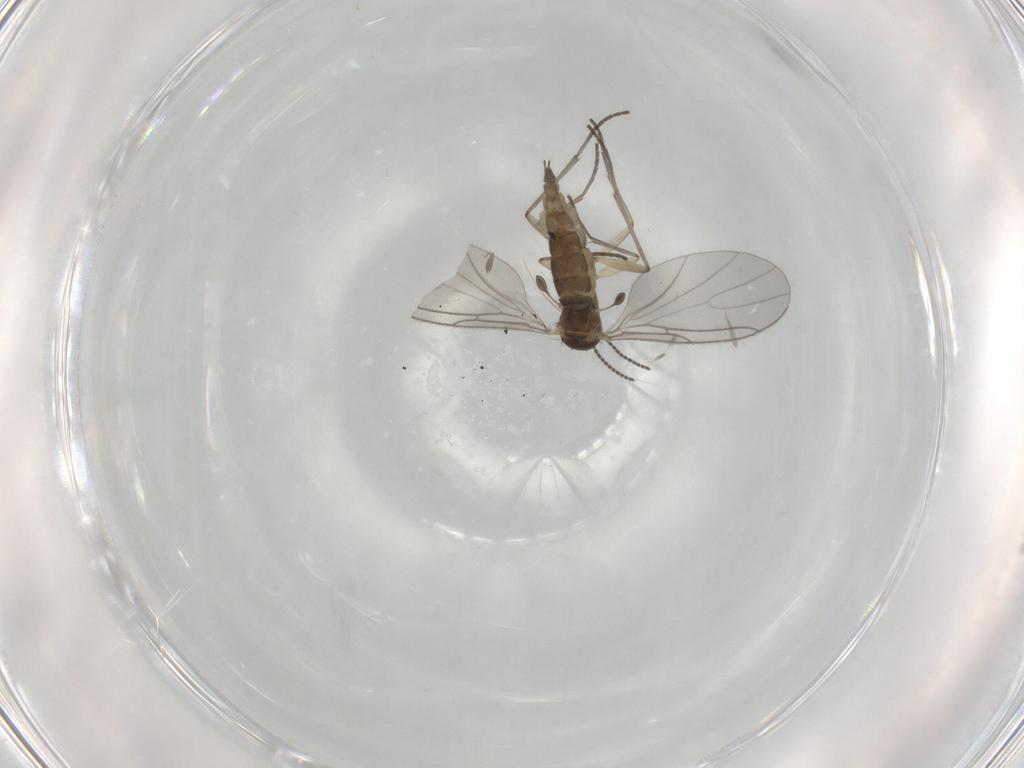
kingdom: Animalia
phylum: Arthropoda
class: Insecta
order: Diptera
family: Sciaridae
